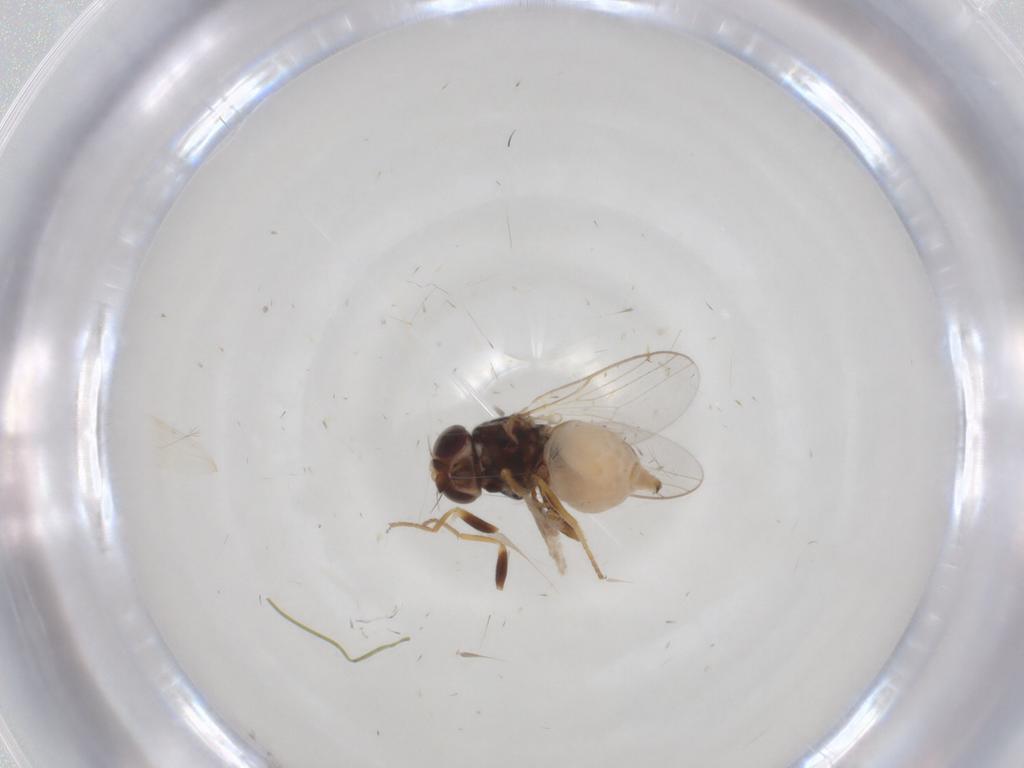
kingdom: Animalia
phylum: Arthropoda
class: Insecta
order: Diptera
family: Chloropidae
